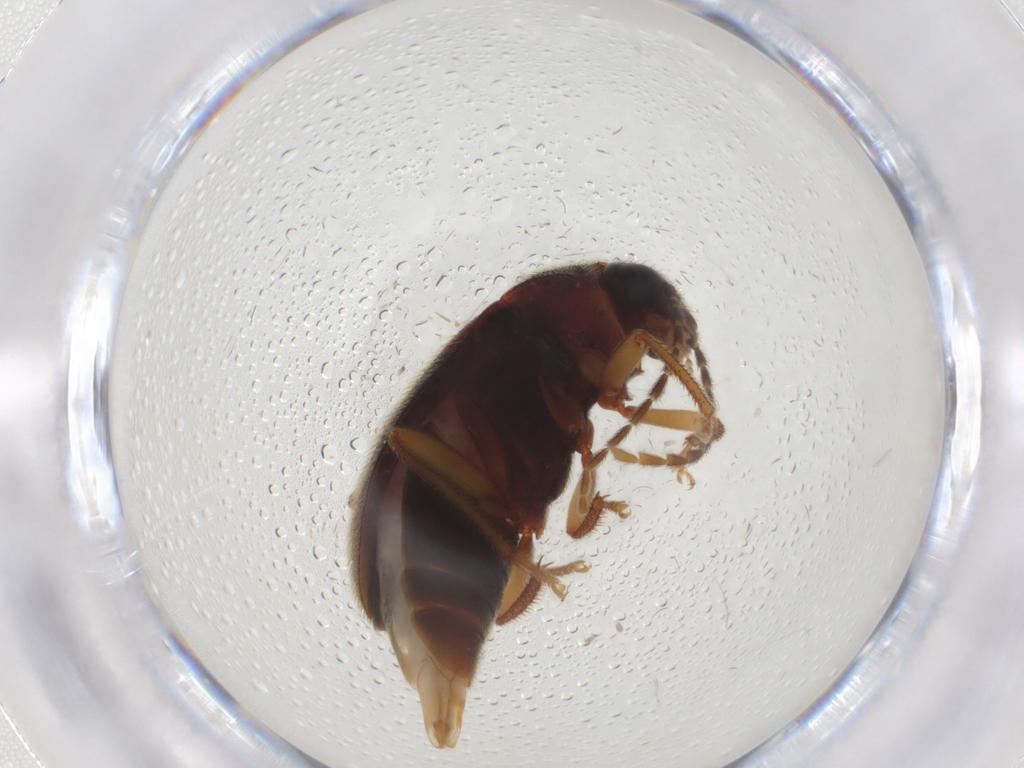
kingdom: Animalia
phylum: Arthropoda
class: Insecta
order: Coleoptera
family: Ptilodactylidae
